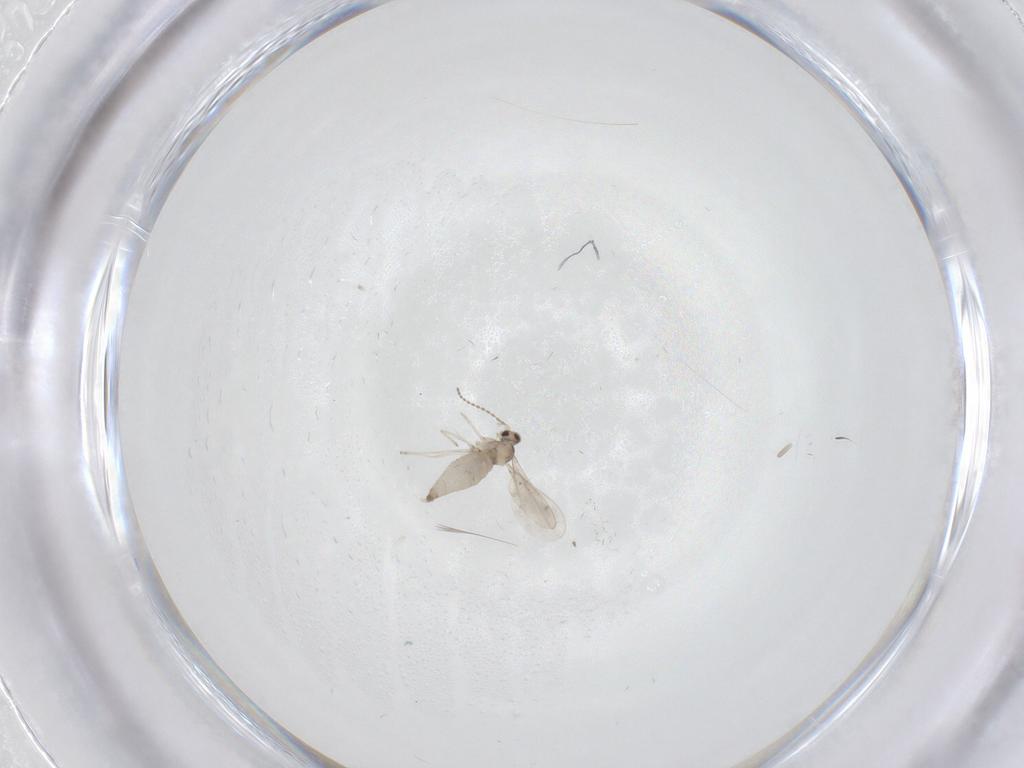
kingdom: Animalia
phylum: Arthropoda
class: Insecta
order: Diptera
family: Cecidomyiidae
